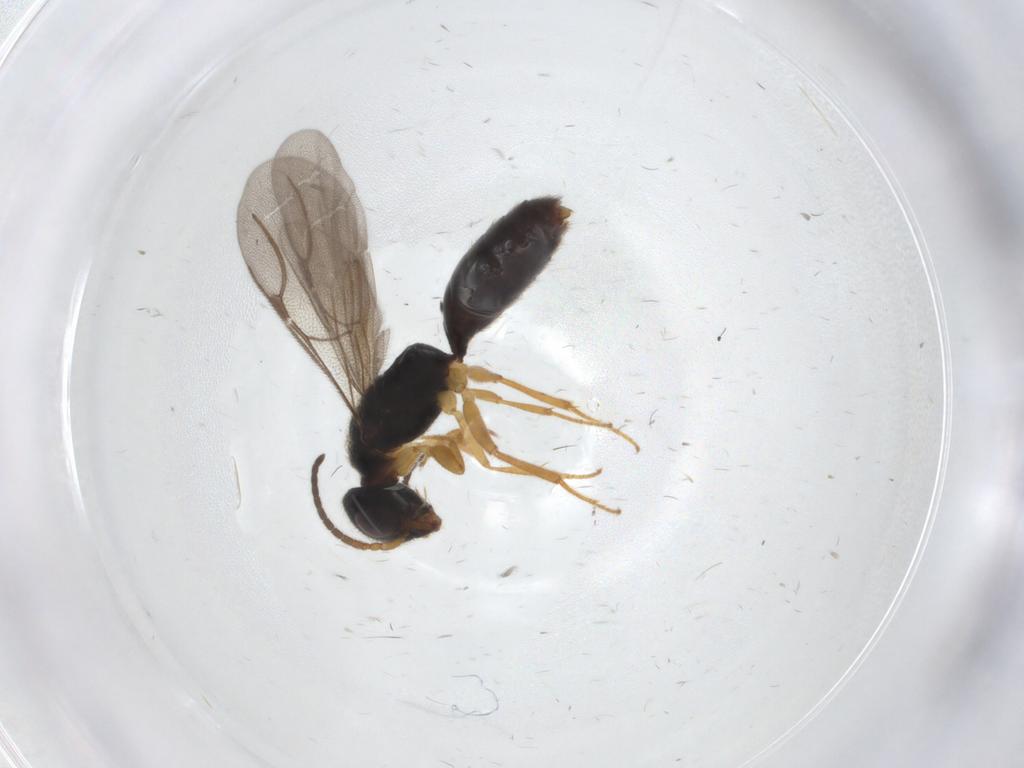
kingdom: Animalia
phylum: Arthropoda
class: Insecta
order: Hymenoptera
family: Bethylidae
